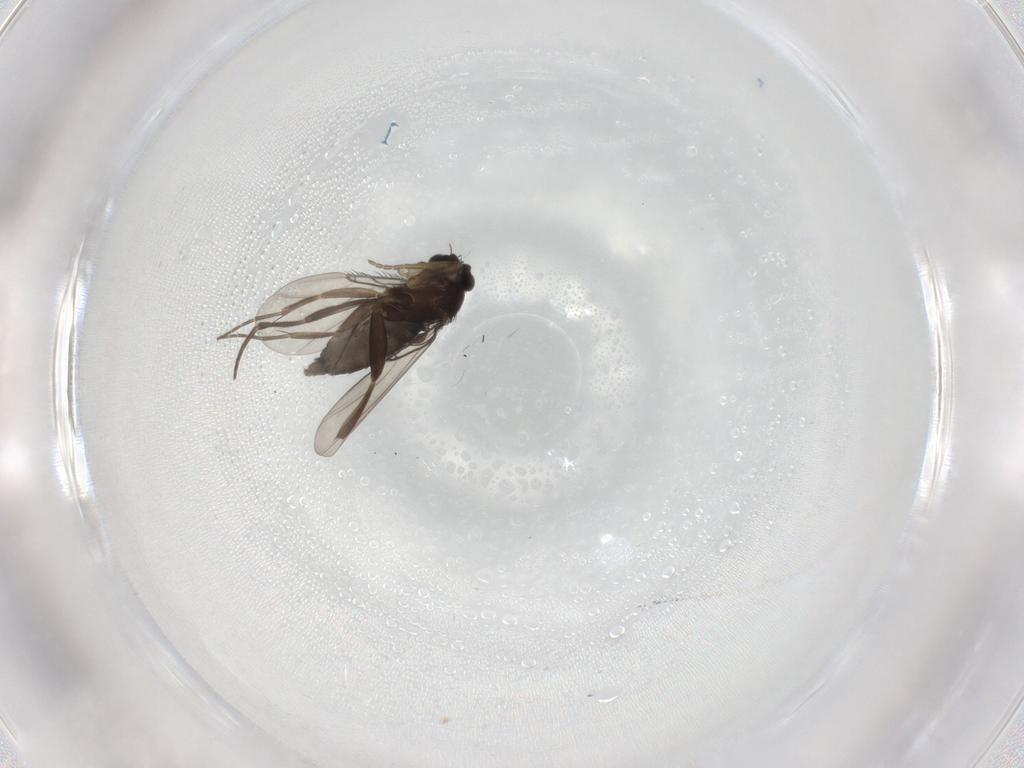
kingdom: Animalia
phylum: Arthropoda
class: Insecta
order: Diptera
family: Phoridae
